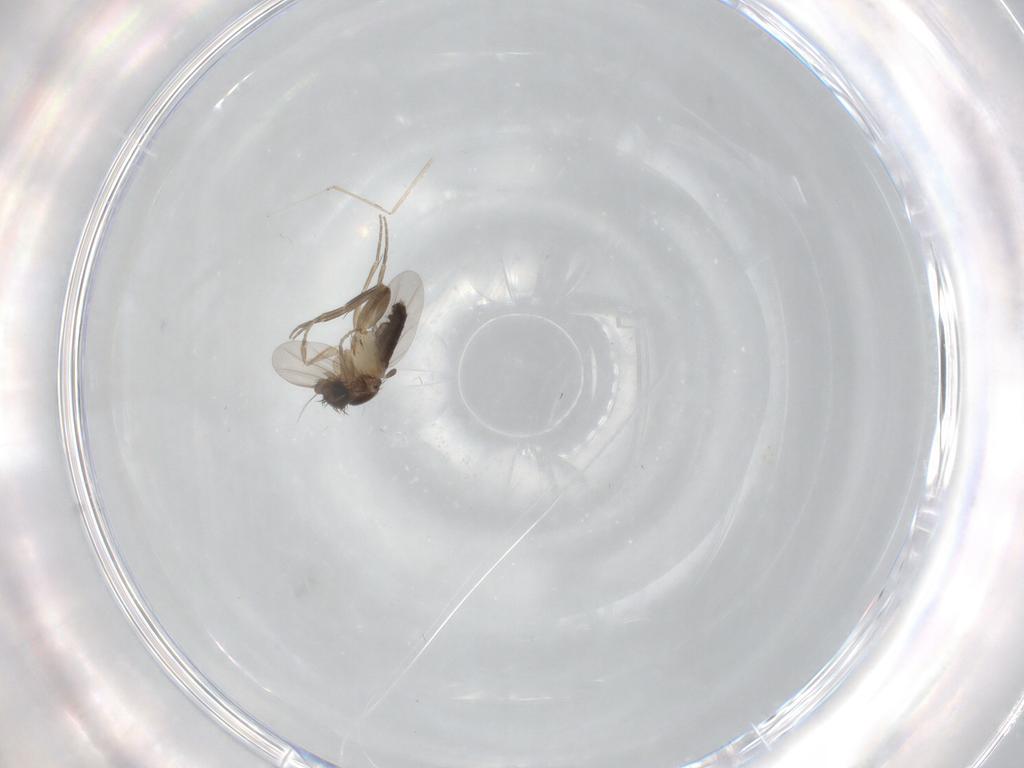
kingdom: Animalia
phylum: Arthropoda
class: Insecta
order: Diptera
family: Phoridae
